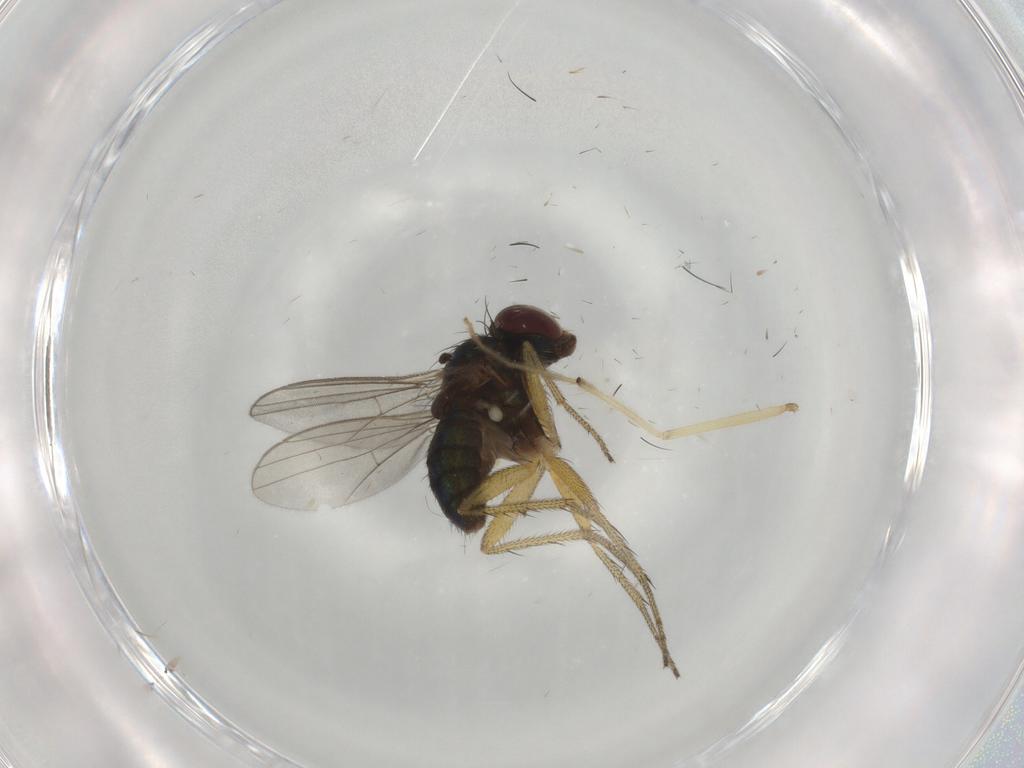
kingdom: Animalia
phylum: Arthropoda
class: Insecta
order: Diptera
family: Chironomidae
